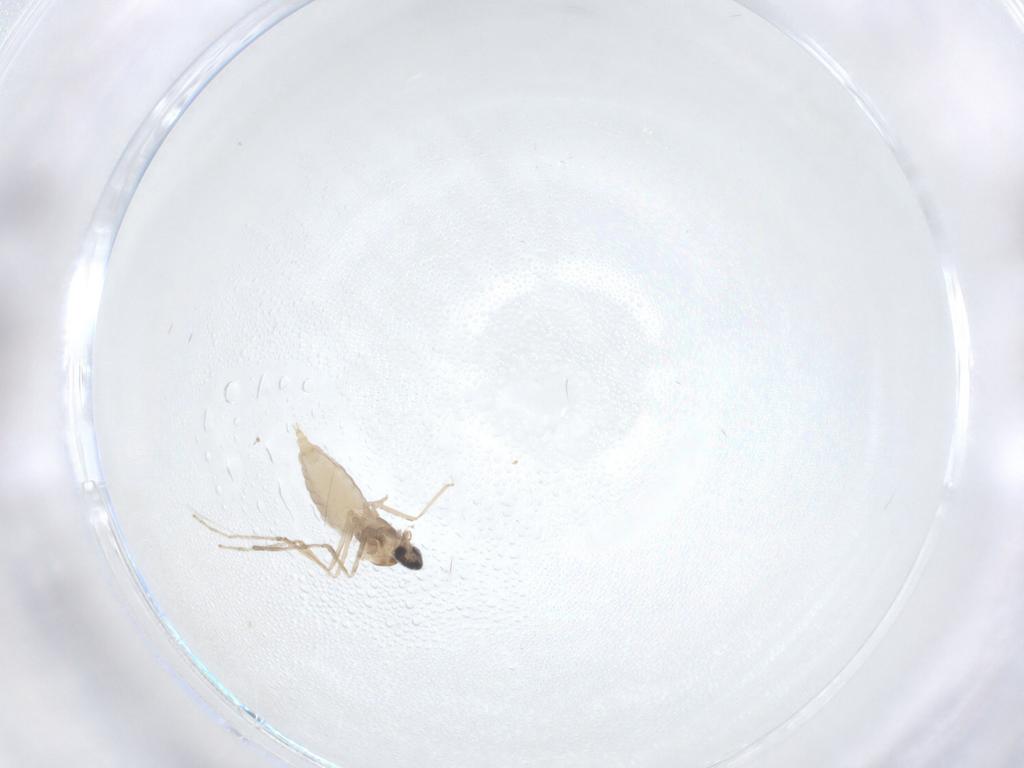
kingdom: Animalia
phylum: Arthropoda
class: Insecta
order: Diptera
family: Cecidomyiidae
